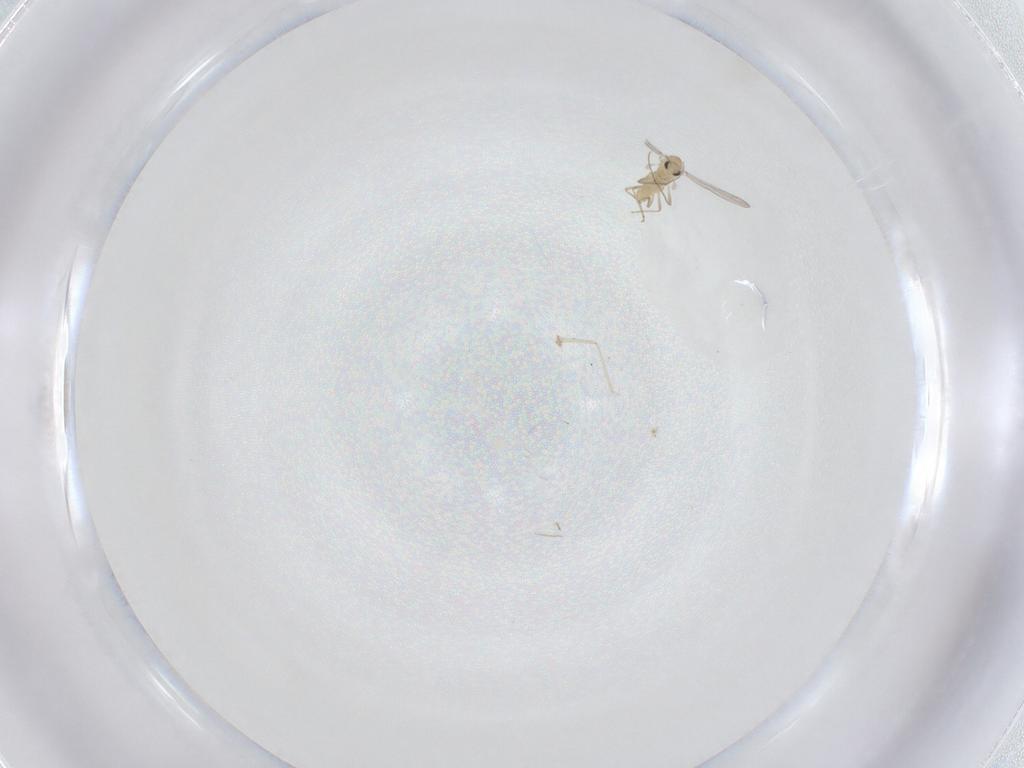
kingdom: Animalia
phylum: Arthropoda
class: Insecta
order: Diptera
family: Chironomidae
